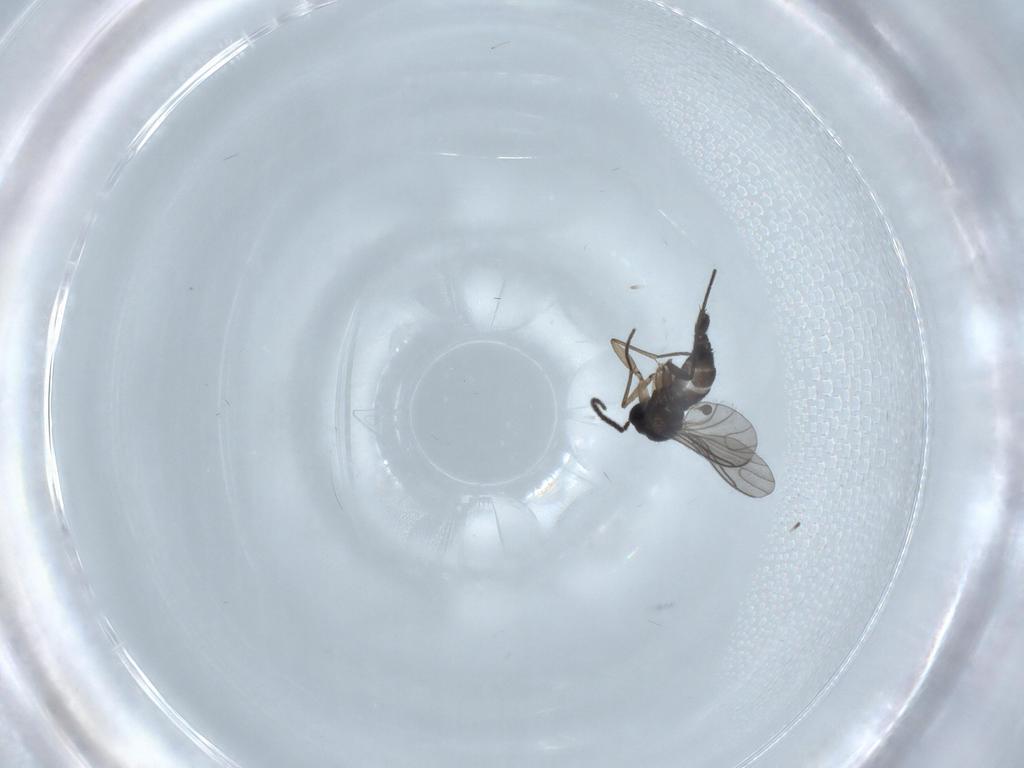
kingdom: Animalia
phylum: Arthropoda
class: Insecta
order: Diptera
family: Sciaridae
